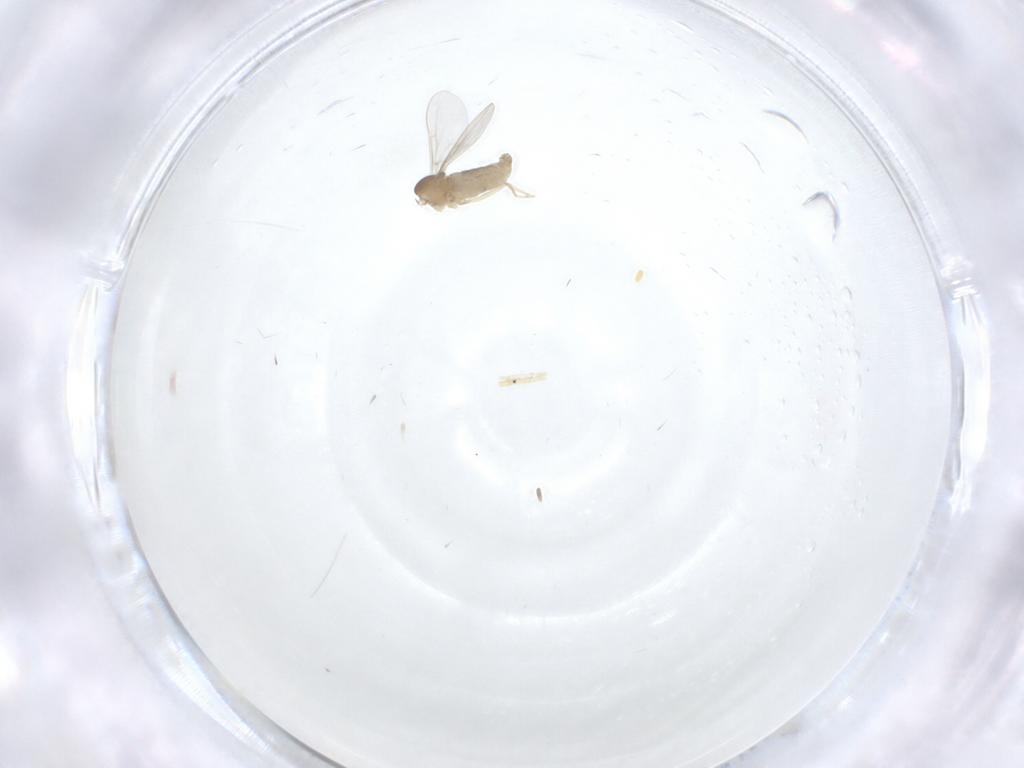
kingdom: Animalia
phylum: Arthropoda
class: Insecta
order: Diptera
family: Cecidomyiidae
